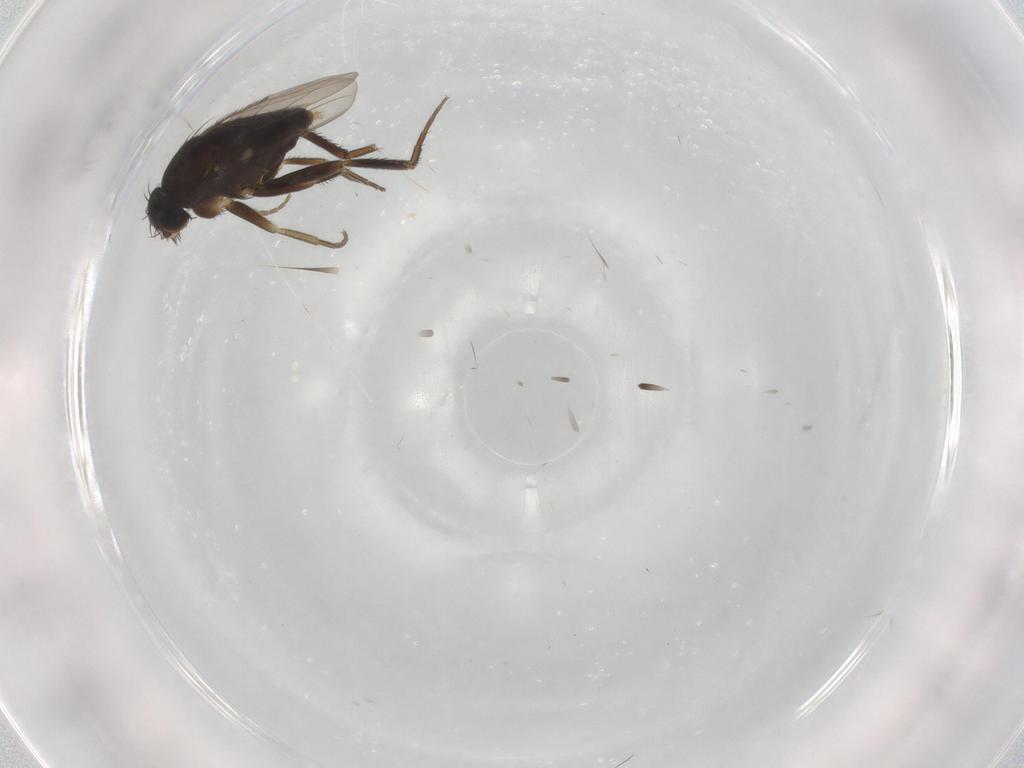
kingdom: Animalia
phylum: Arthropoda
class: Insecta
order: Diptera
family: Phoridae
